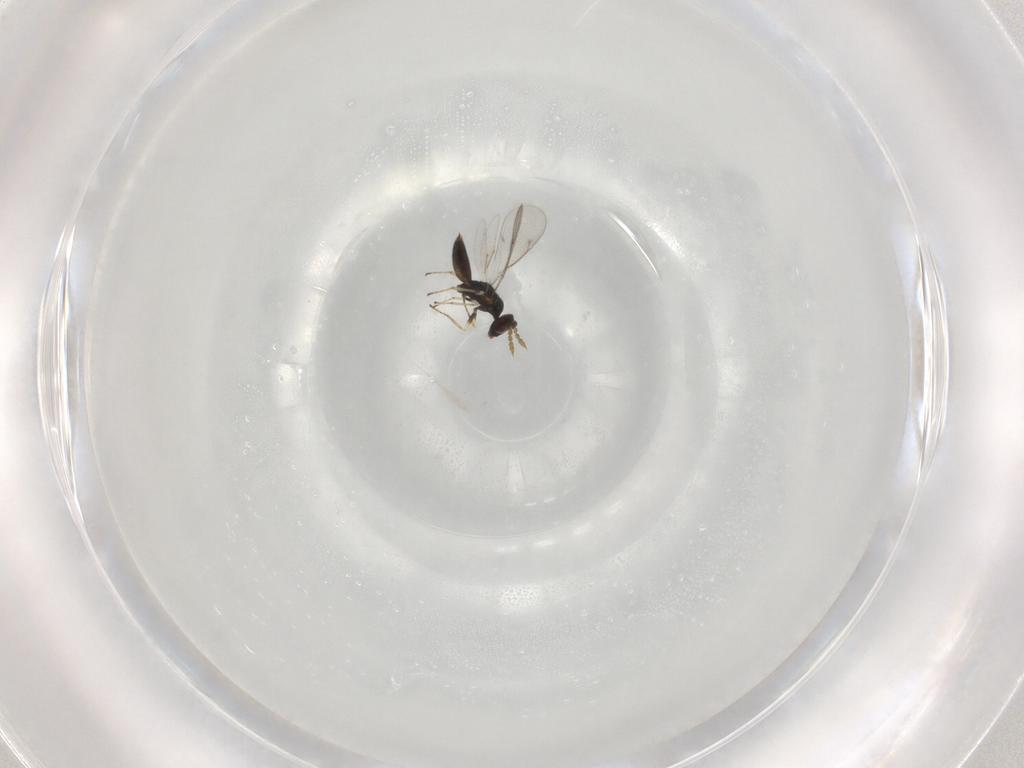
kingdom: Animalia
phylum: Arthropoda
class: Insecta
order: Hymenoptera
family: Eulophidae
